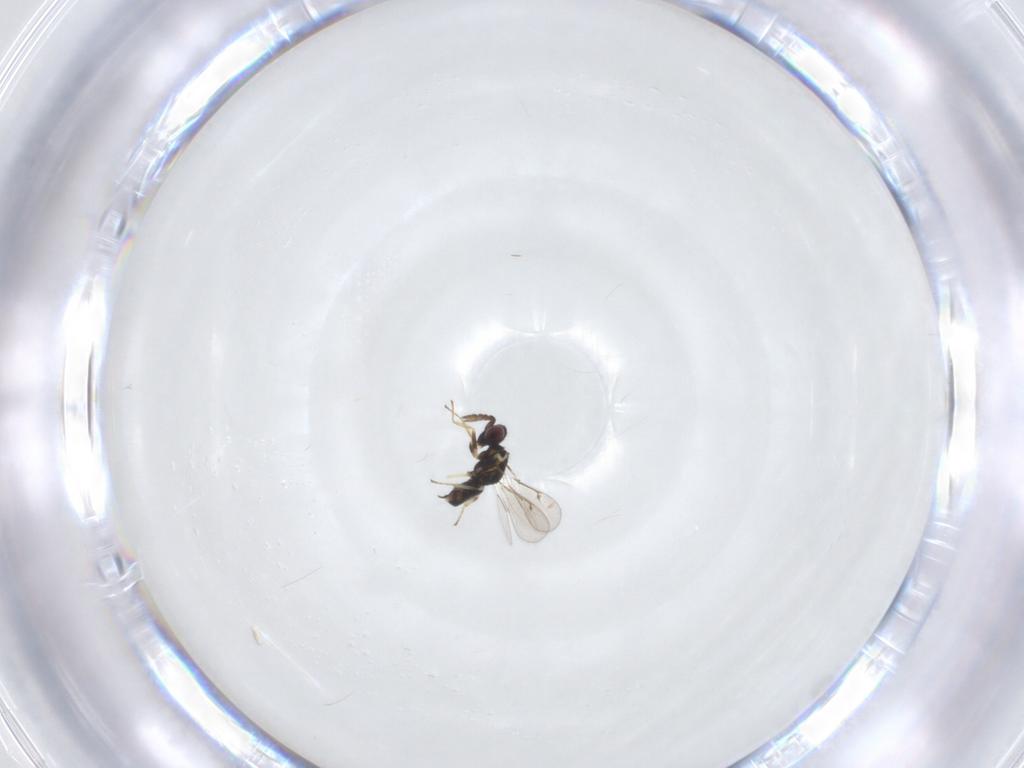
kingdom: Animalia
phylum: Arthropoda
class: Insecta
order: Hymenoptera
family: Eulophidae
